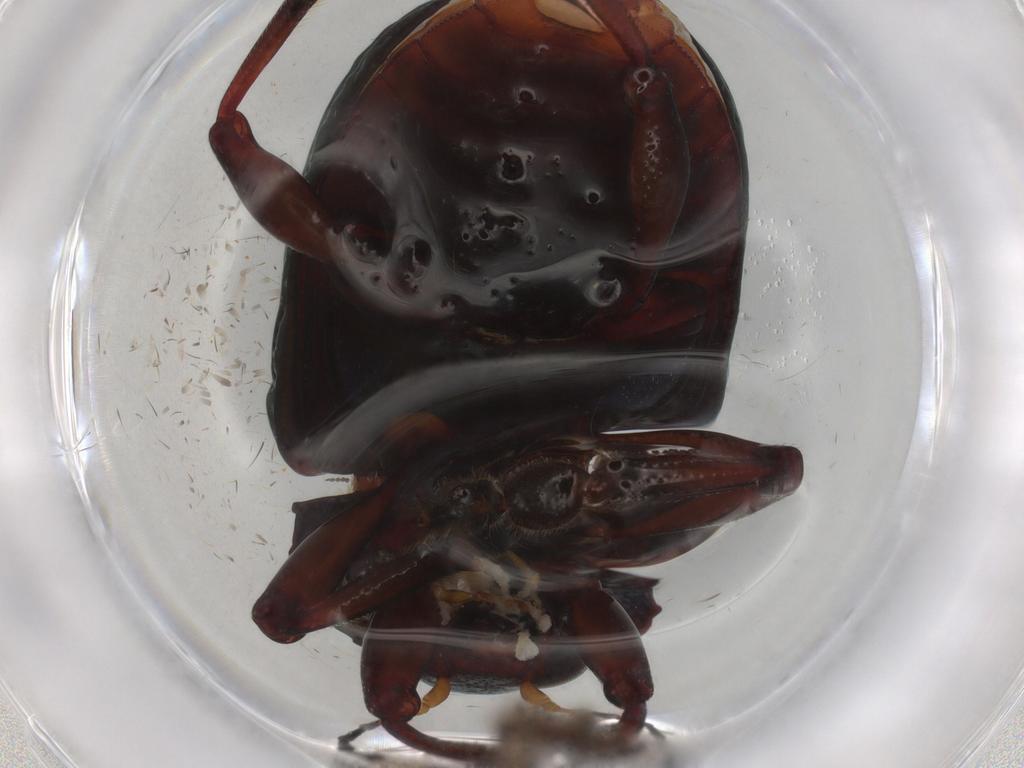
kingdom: Animalia
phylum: Arthropoda
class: Insecta
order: Coleoptera
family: Chrysomelidae
